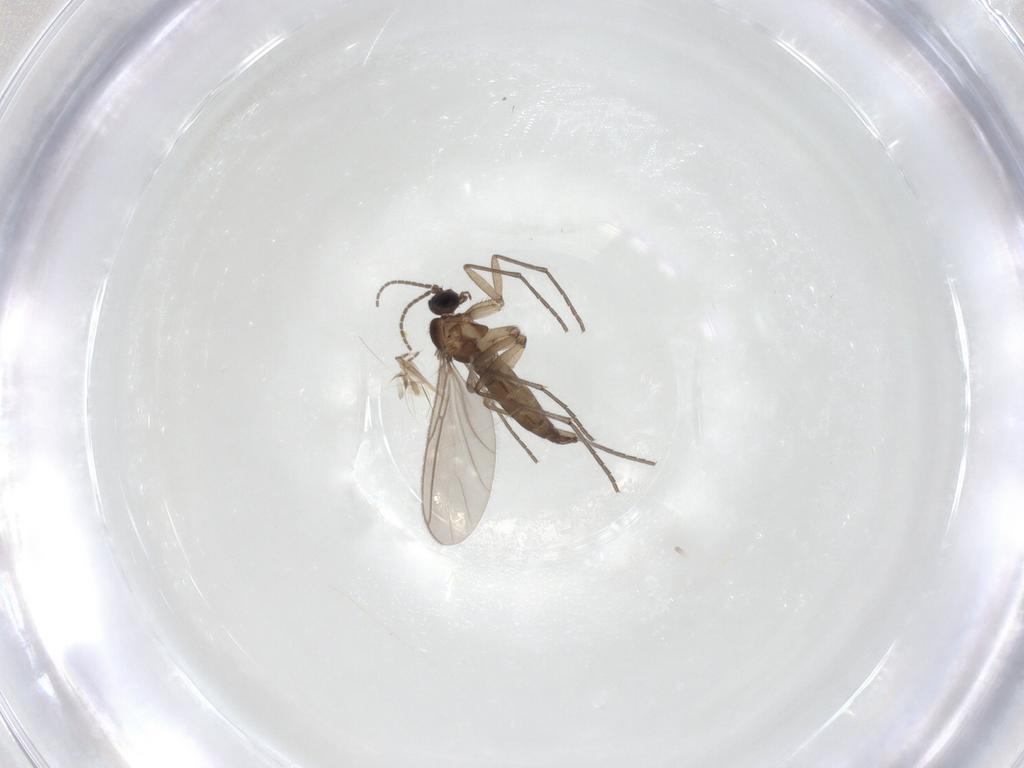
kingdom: Animalia
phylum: Arthropoda
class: Insecta
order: Diptera
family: Sciaridae
